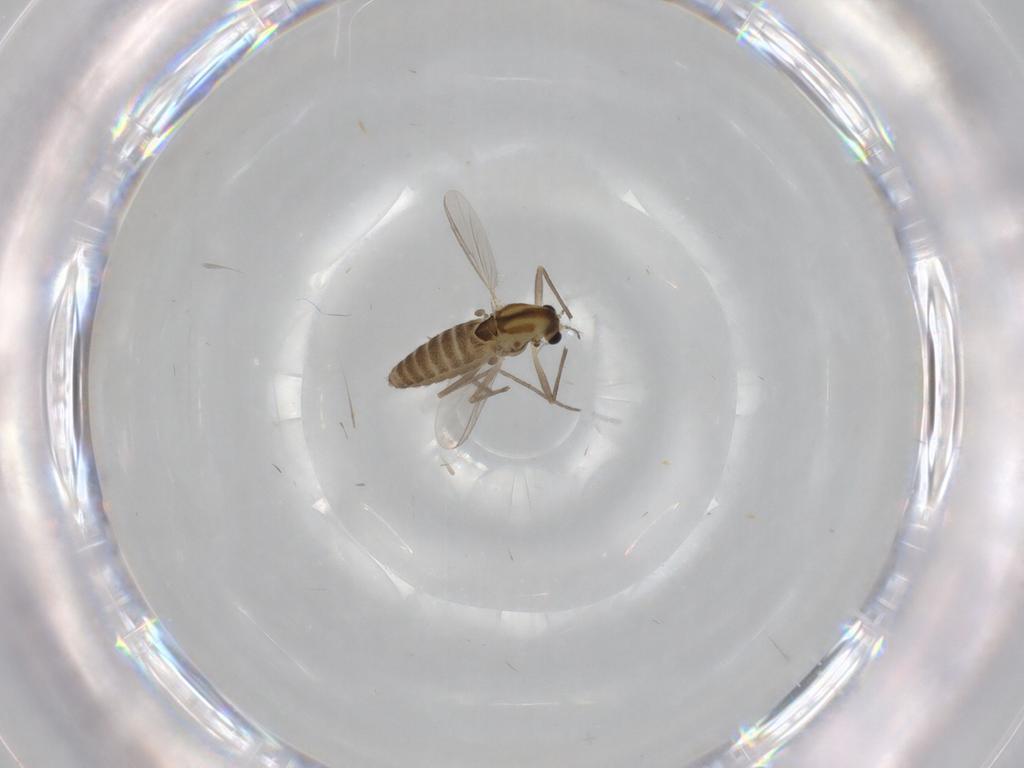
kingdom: Animalia
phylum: Arthropoda
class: Insecta
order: Diptera
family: Chironomidae
